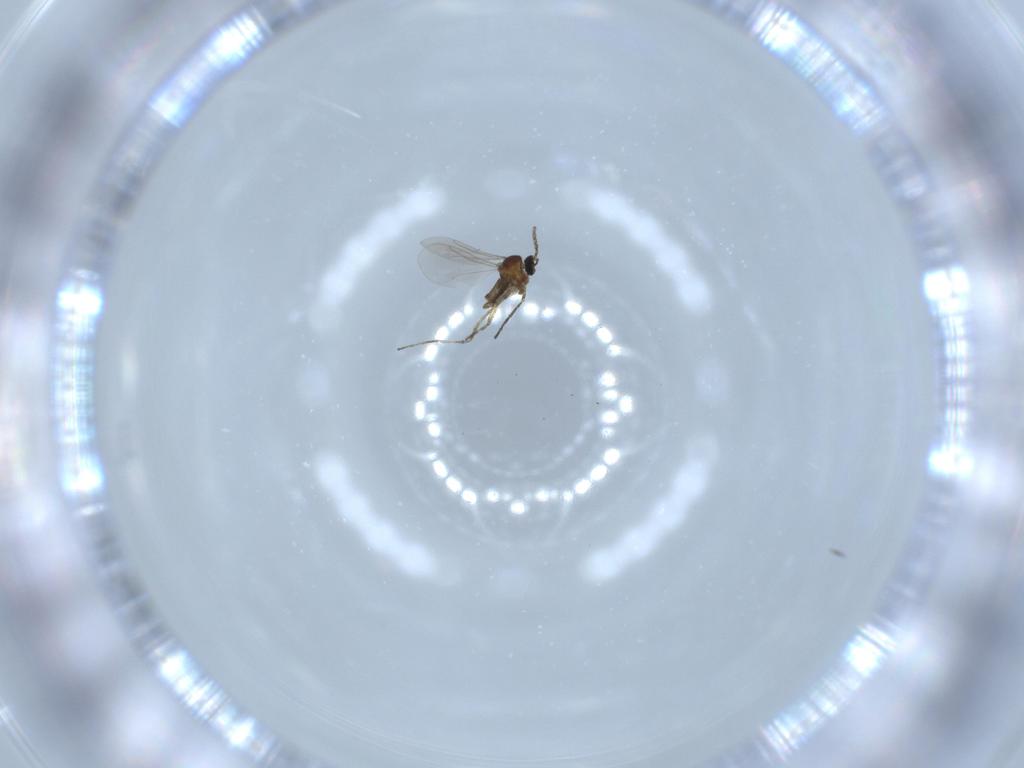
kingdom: Animalia
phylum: Arthropoda
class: Insecta
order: Diptera
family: Cecidomyiidae
